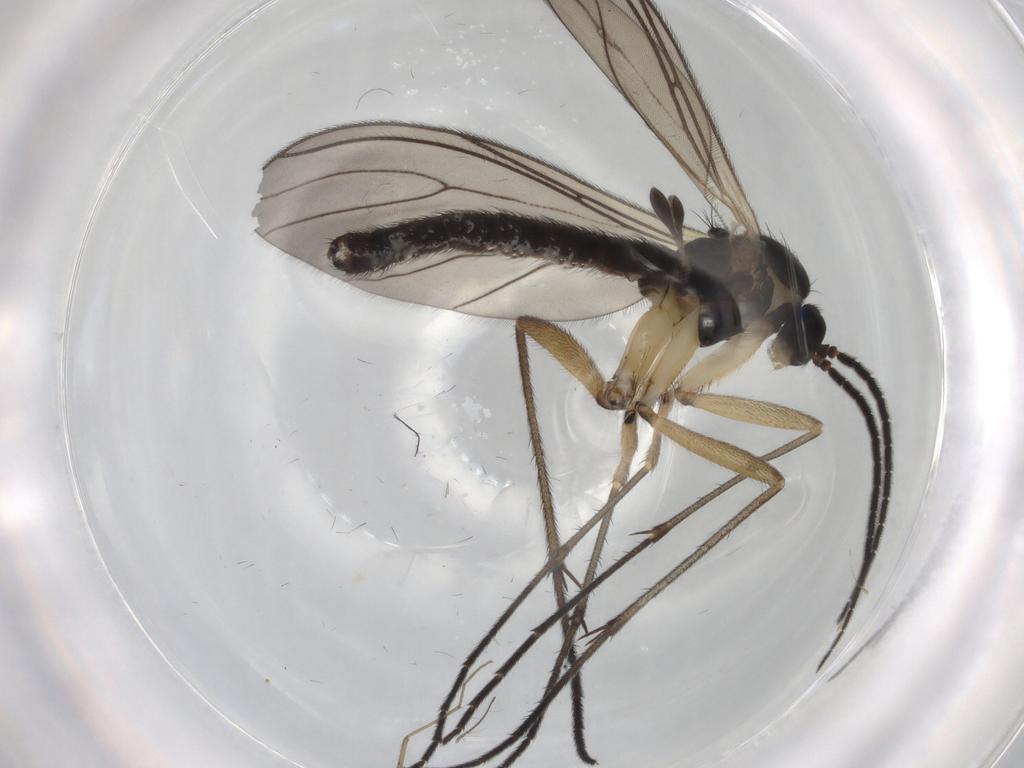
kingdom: Animalia
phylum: Arthropoda
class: Insecta
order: Diptera
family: Sciaridae
